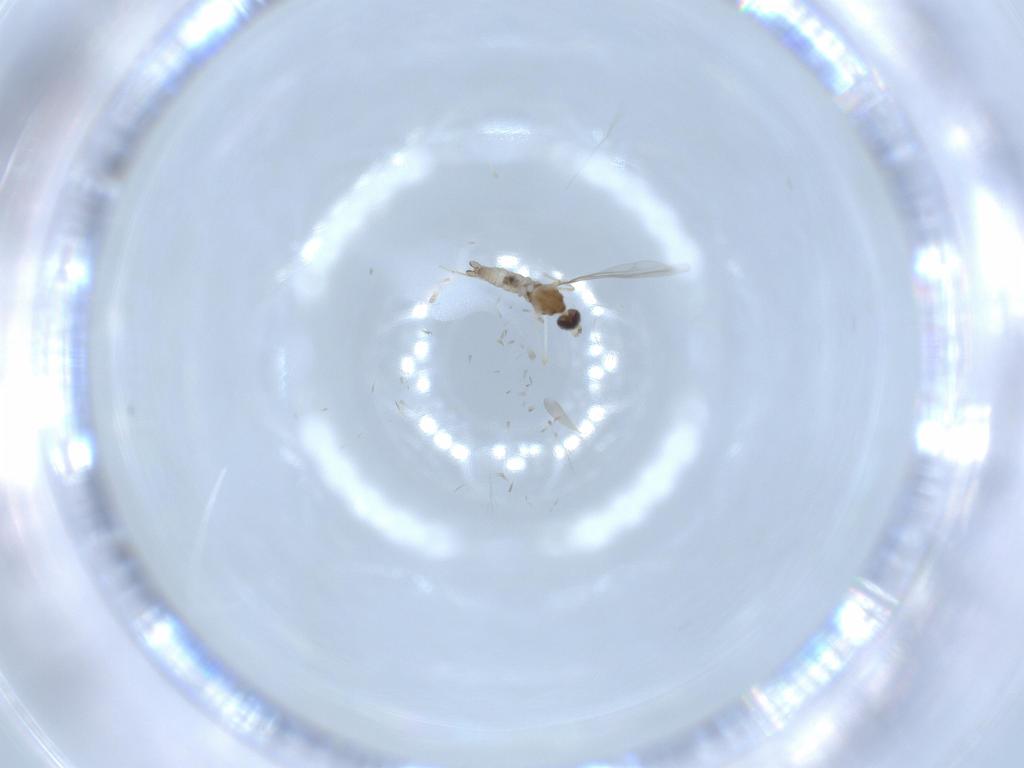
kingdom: Animalia
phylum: Arthropoda
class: Insecta
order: Diptera
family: Cecidomyiidae
